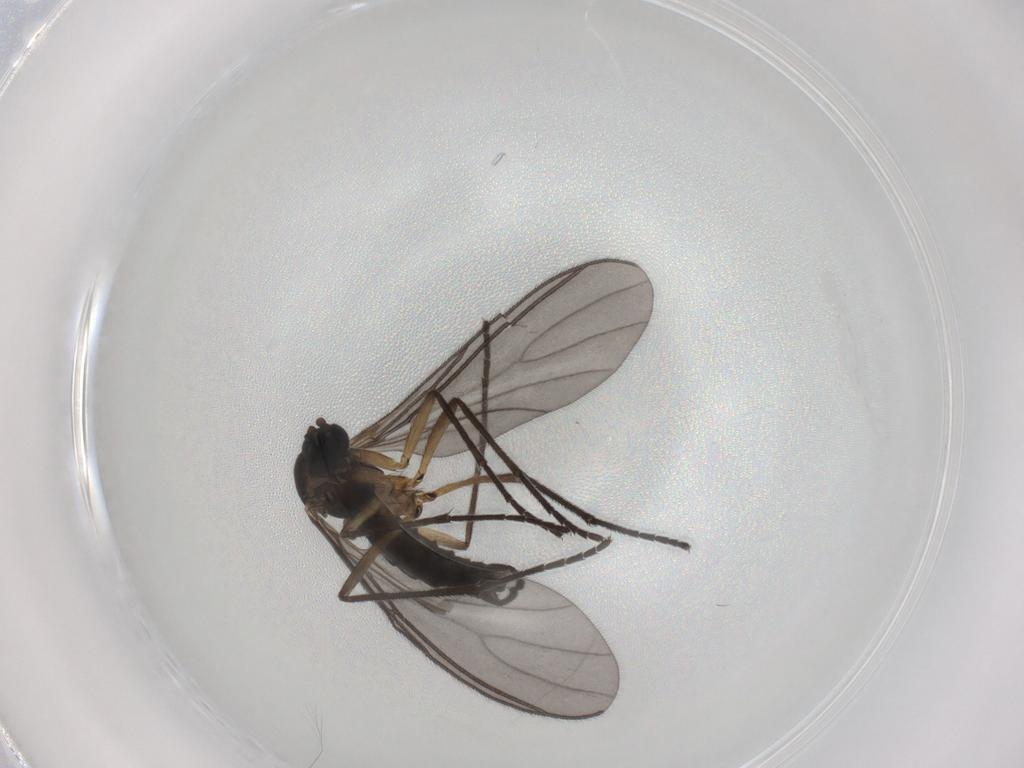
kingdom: Animalia
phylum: Arthropoda
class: Insecta
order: Diptera
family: Sciaridae
